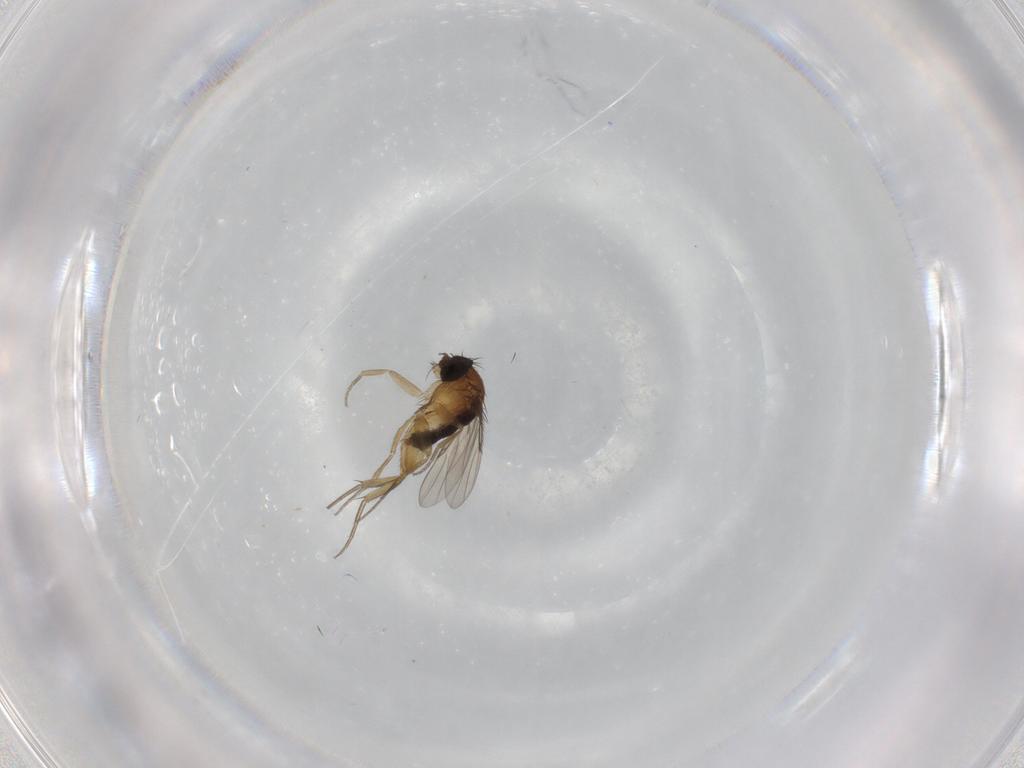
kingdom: Animalia
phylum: Arthropoda
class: Insecta
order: Diptera
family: Phoridae
